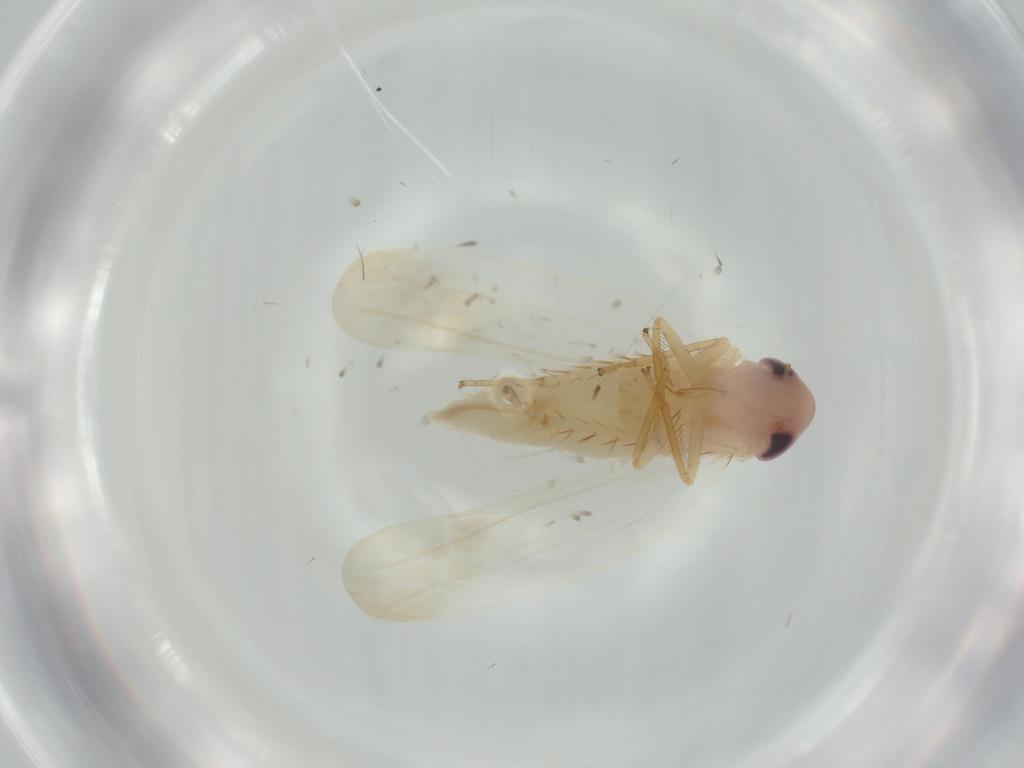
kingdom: Animalia
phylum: Arthropoda
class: Insecta
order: Hemiptera
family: Cicadellidae
